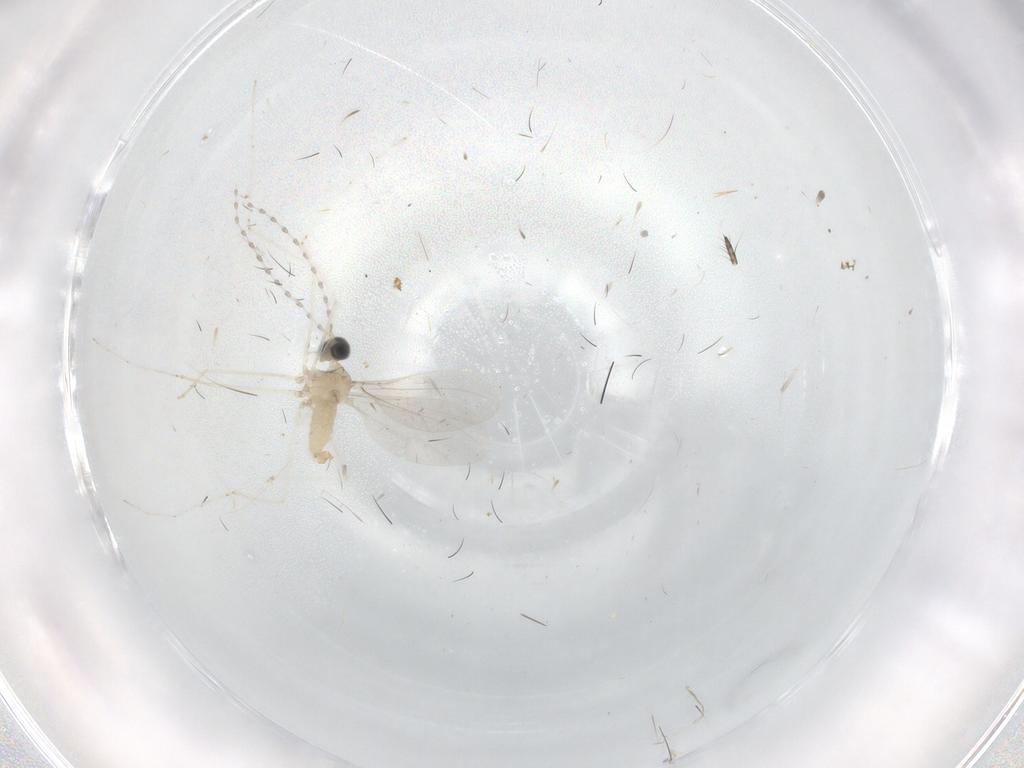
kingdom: Animalia
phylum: Arthropoda
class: Insecta
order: Diptera
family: Cecidomyiidae
